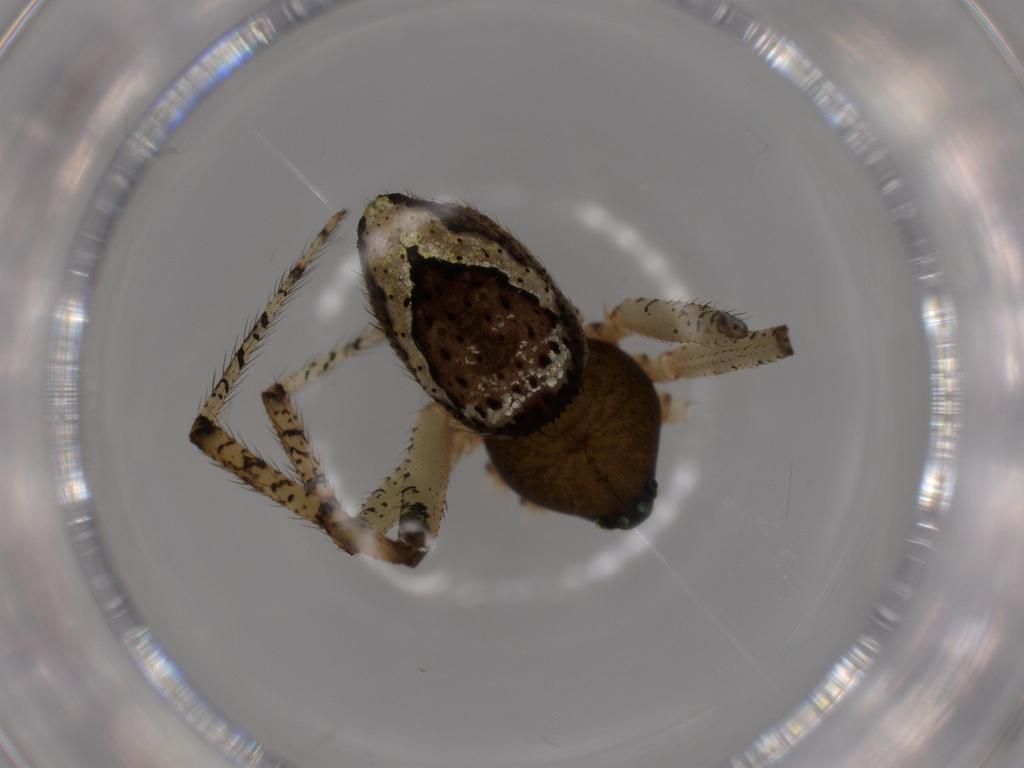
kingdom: Animalia
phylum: Arthropoda
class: Arachnida
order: Araneae
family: Theridiidae
